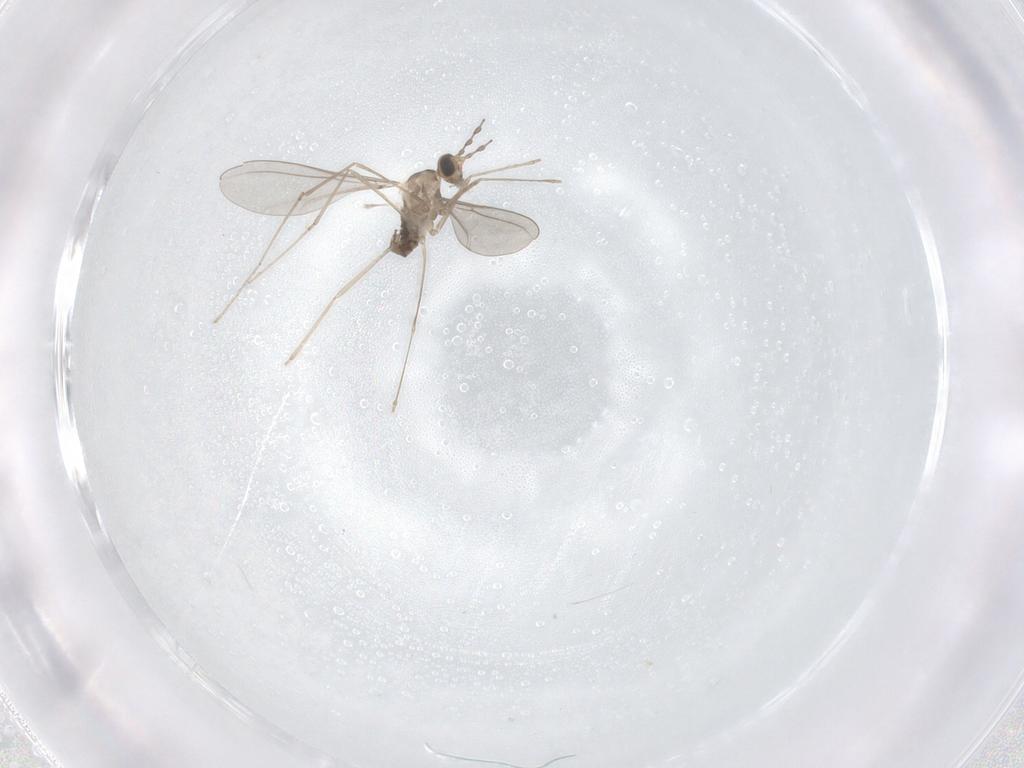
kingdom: Animalia
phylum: Arthropoda
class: Insecta
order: Diptera
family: Cecidomyiidae
